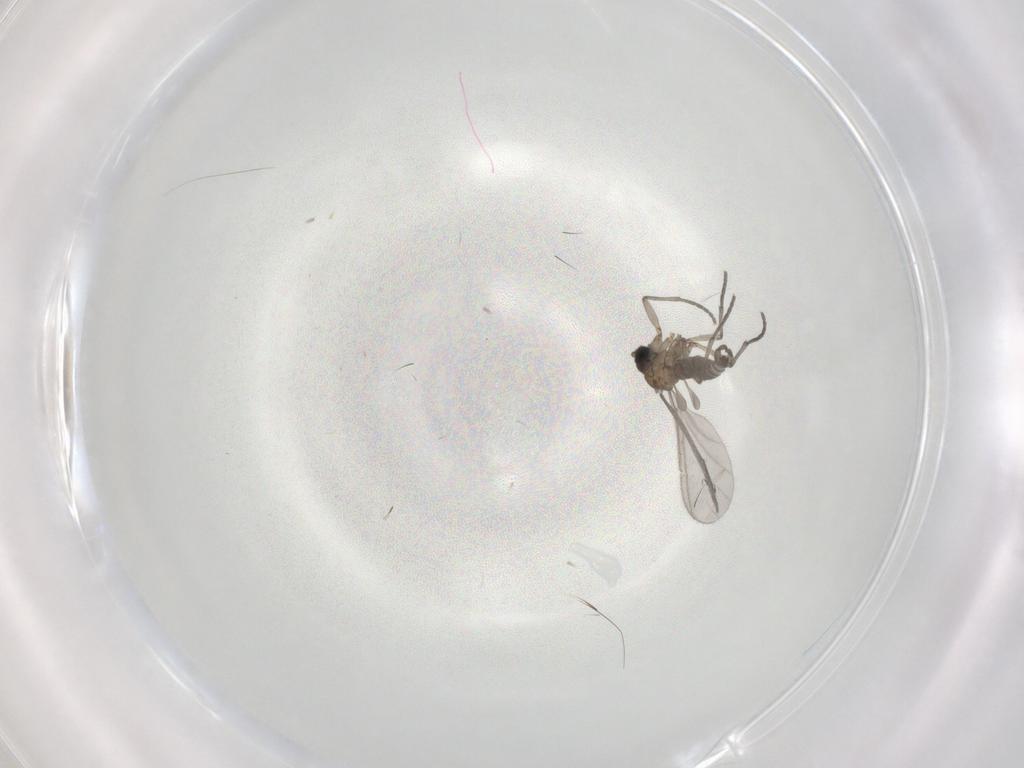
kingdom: Animalia
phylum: Arthropoda
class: Insecta
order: Diptera
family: Sciaridae
